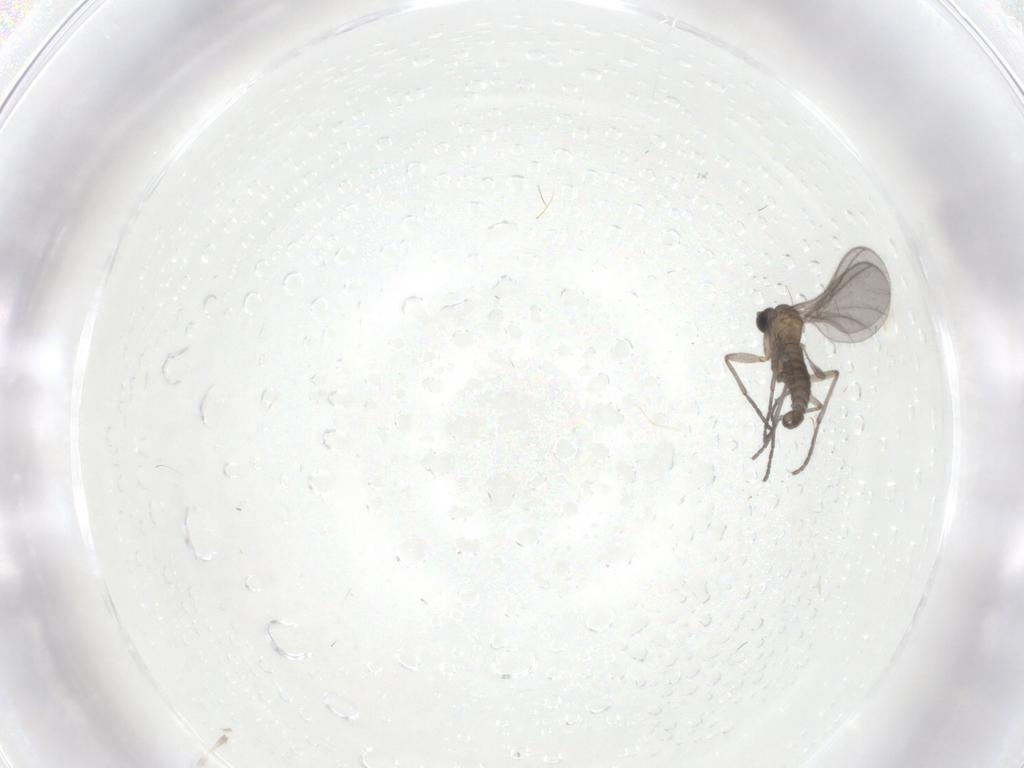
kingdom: Animalia
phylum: Arthropoda
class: Insecta
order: Diptera
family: Sciaridae
